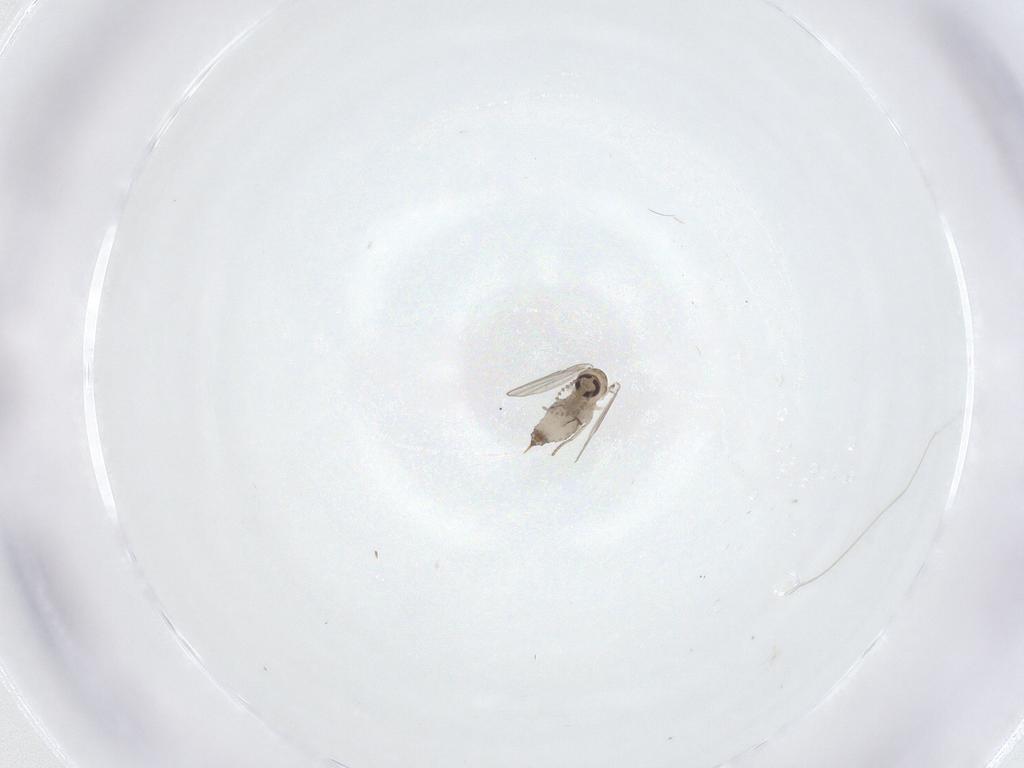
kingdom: Animalia
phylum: Arthropoda
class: Insecta
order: Diptera
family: Psychodidae
